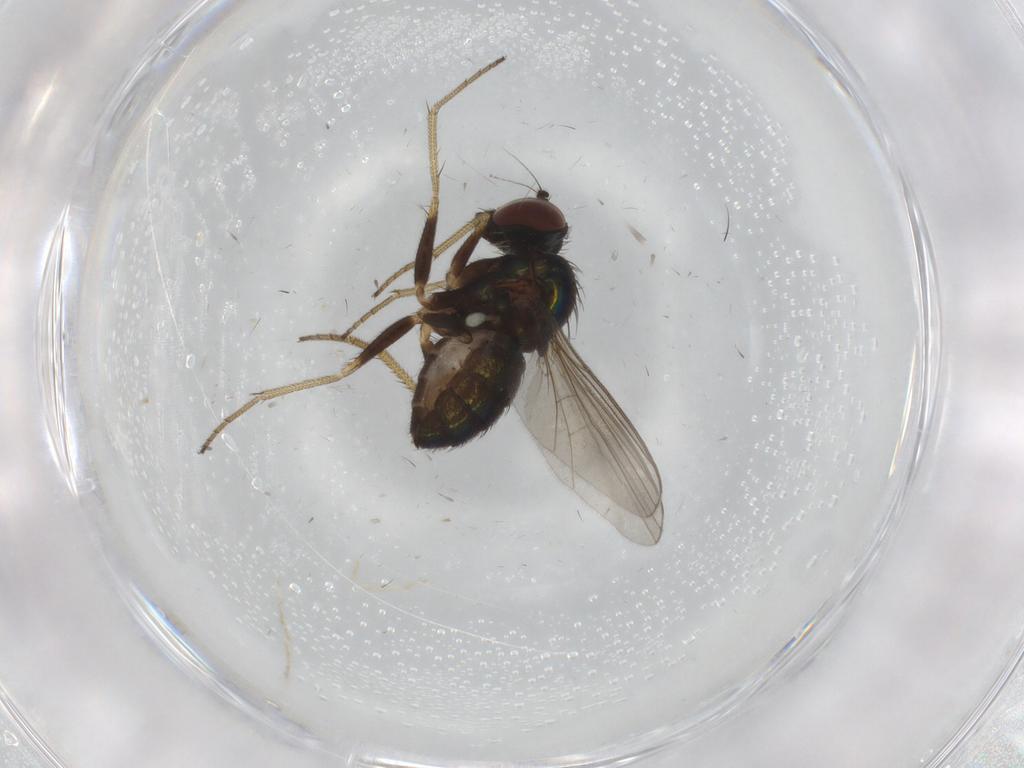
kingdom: Animalia
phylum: Arthropoda
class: Insecta
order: Diptera
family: Dolichopodidae
